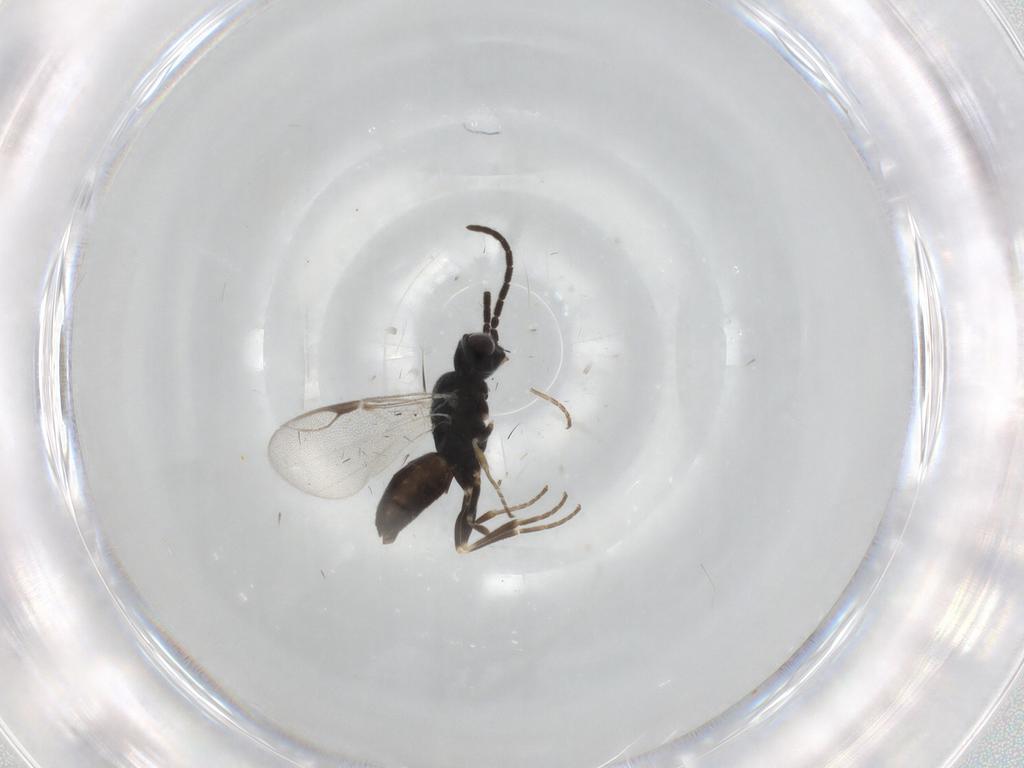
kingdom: Animalia
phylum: Arthropoda
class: Insecta
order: Hymenoptera
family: Dryinidae
